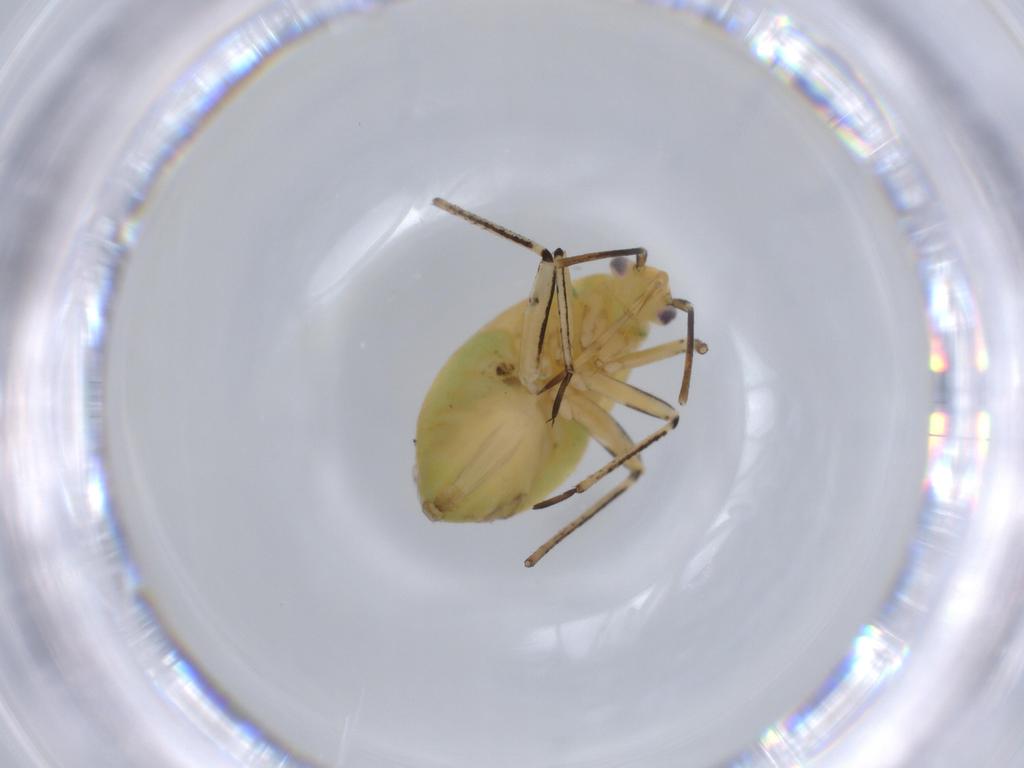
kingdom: Animalia
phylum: Arthropoda
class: Insecta
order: Hemiptera
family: Miridae
